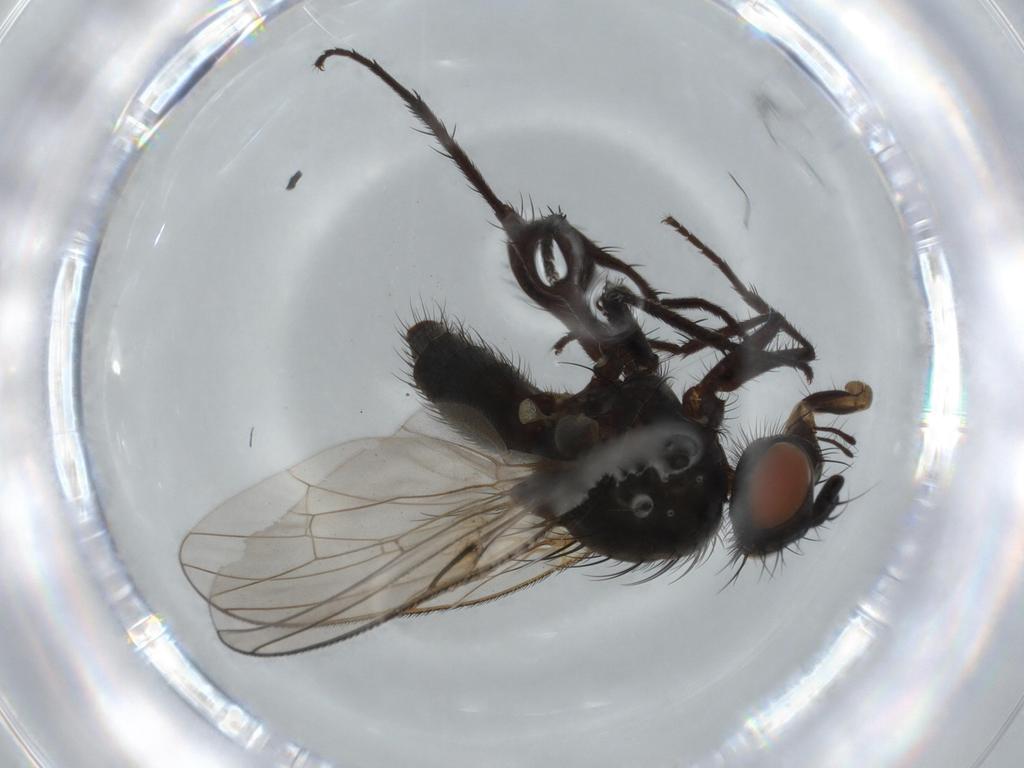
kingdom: Animalia
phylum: Arthropoda
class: Insecta
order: Diptera
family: Anthomyiidae
